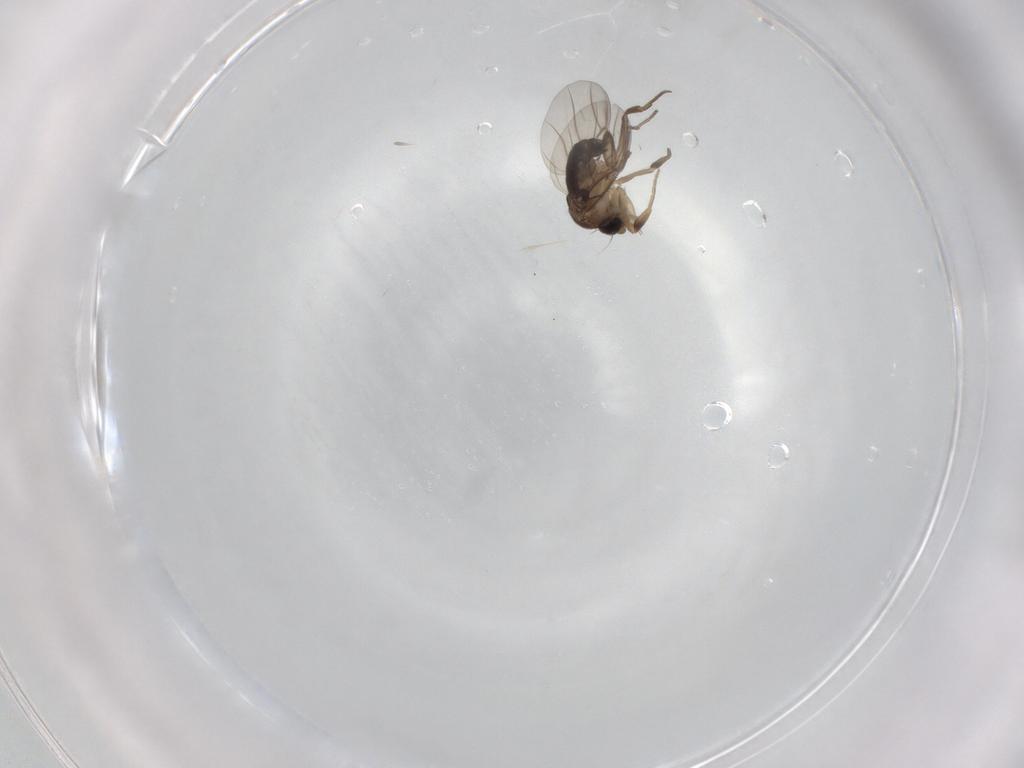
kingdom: Animalia
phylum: Arthropoda
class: Insecta
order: Diptera
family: Phoridae
